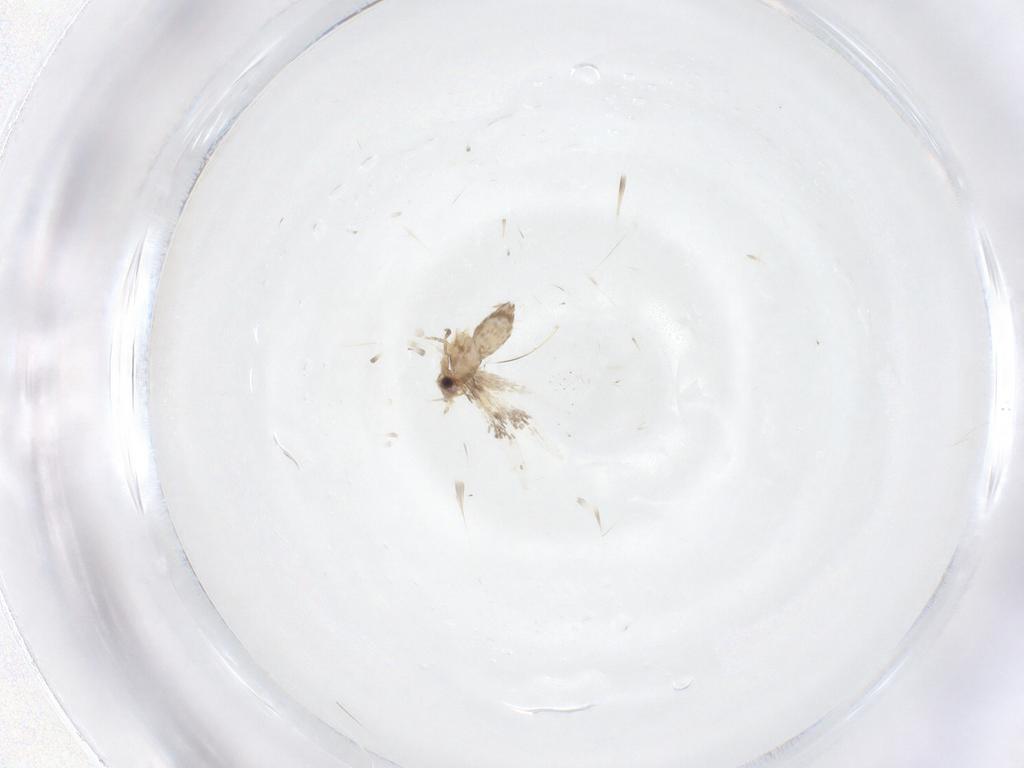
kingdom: Animalia
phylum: Arthropoda
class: Insecta
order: Lepidoptera
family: Nepticulidae
